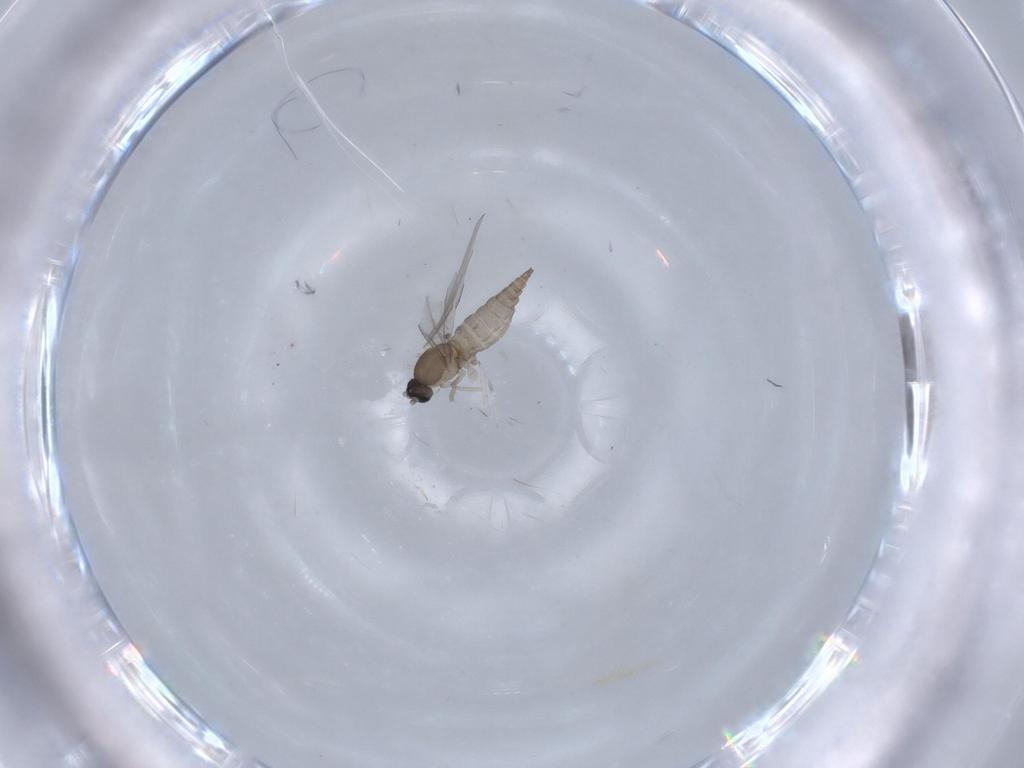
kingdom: Animalia
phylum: Arthropoda
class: Insecta
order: Diptera
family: Cecidomyiidae
